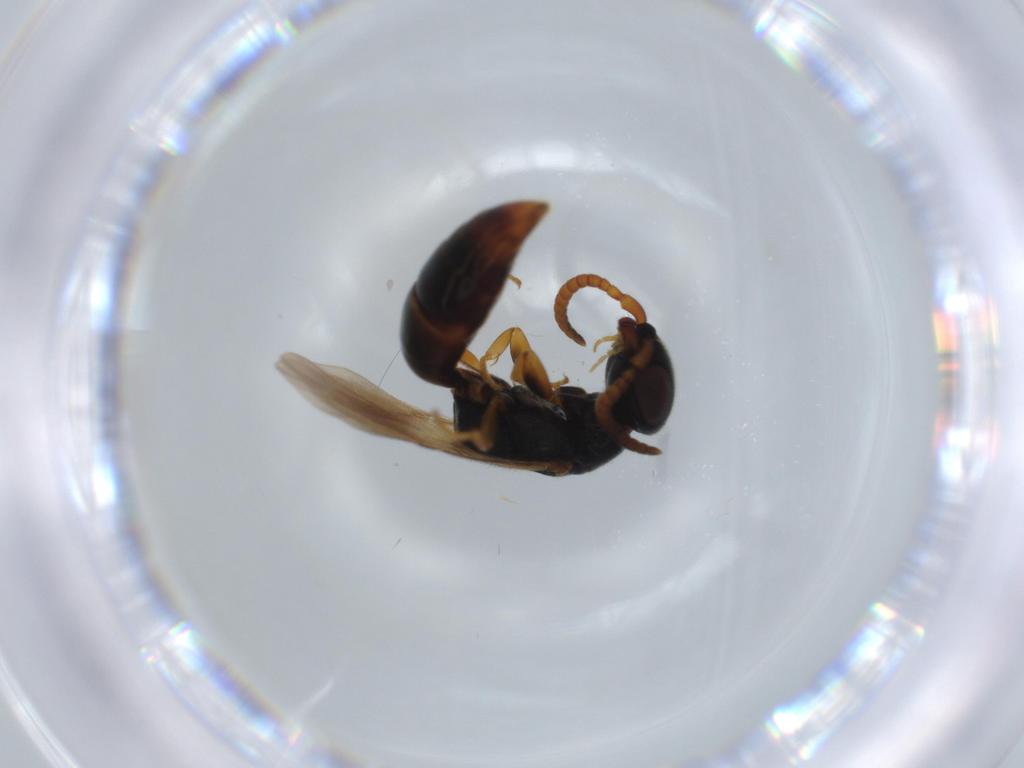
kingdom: Animalia
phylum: Arthropoda
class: Insecta
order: Hymenoptera
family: Bethylidae
